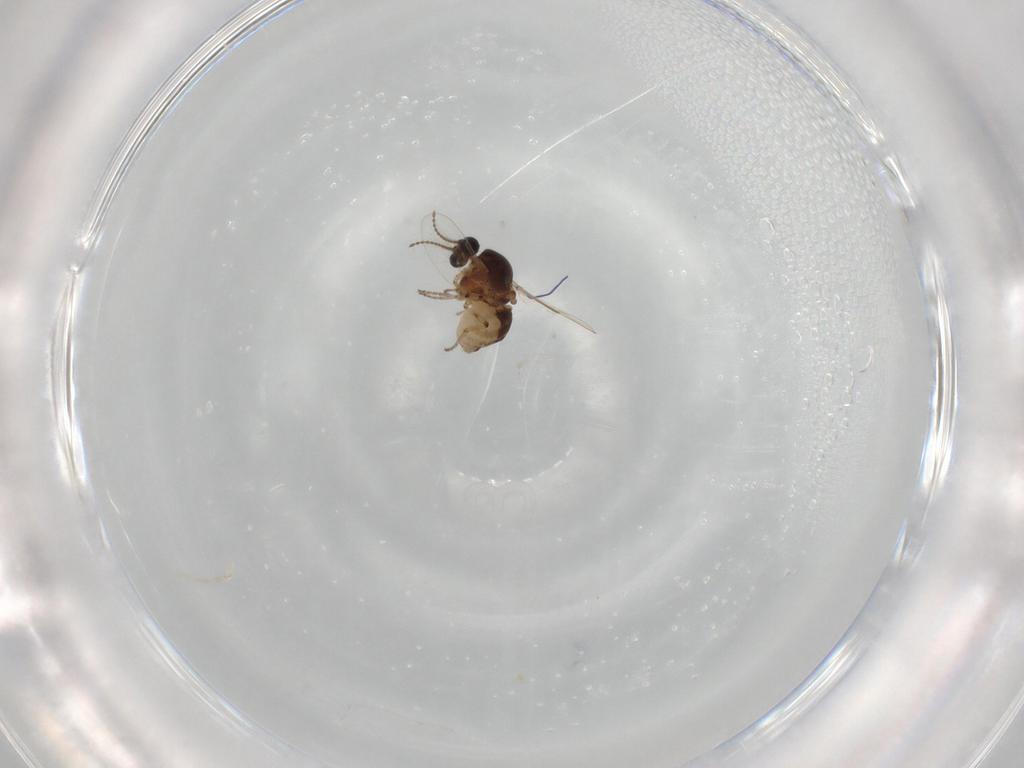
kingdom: Animalia
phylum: Arthropoda
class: Insecta
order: Diptera
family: Ceratopogonidae
